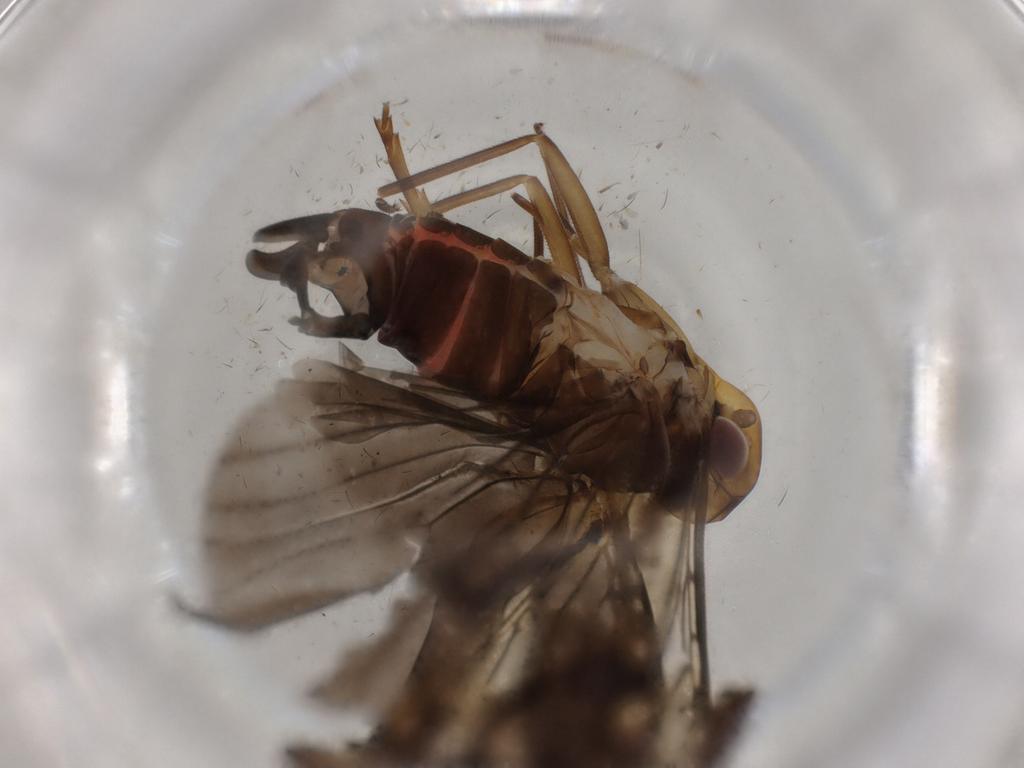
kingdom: Animalia
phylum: Arthropoda
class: Insecta
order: Hemiptera
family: Cixiidae
